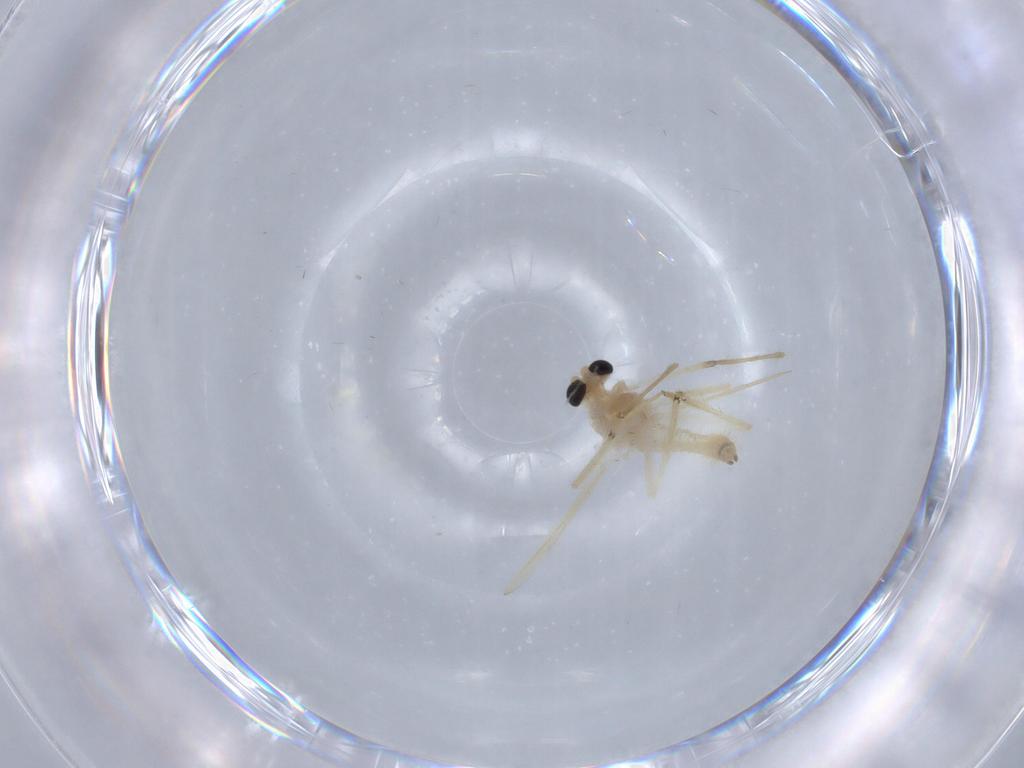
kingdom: Animalia
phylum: Arthropoda
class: Insecta
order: Diptera
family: Chironomidae
